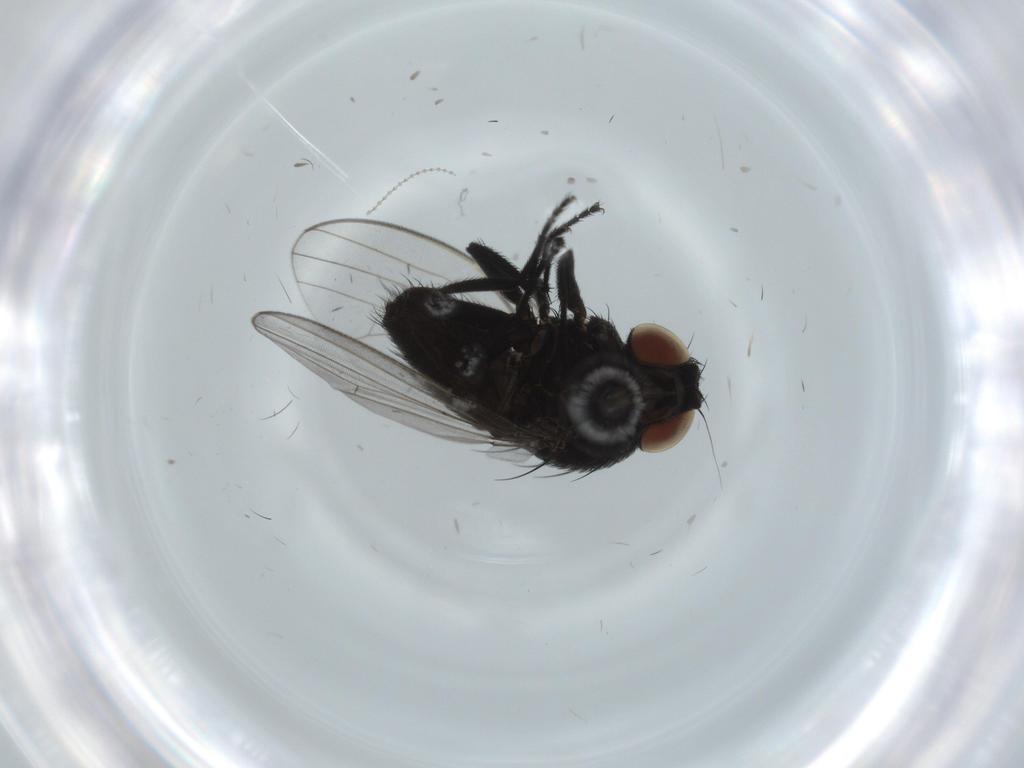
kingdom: Animalia
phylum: Arthropoda
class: Insecta
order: Diptera
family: Milichiidae
